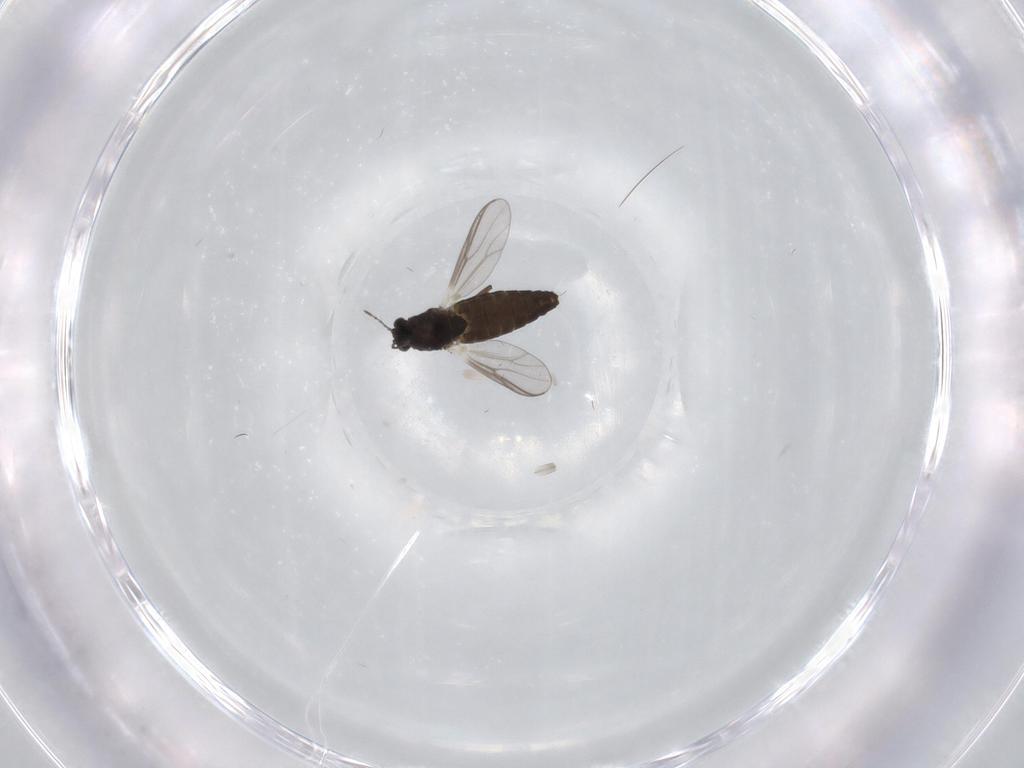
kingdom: Animalia
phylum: Arthropoda
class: Insecta
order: Diptera
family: Chironomidae
